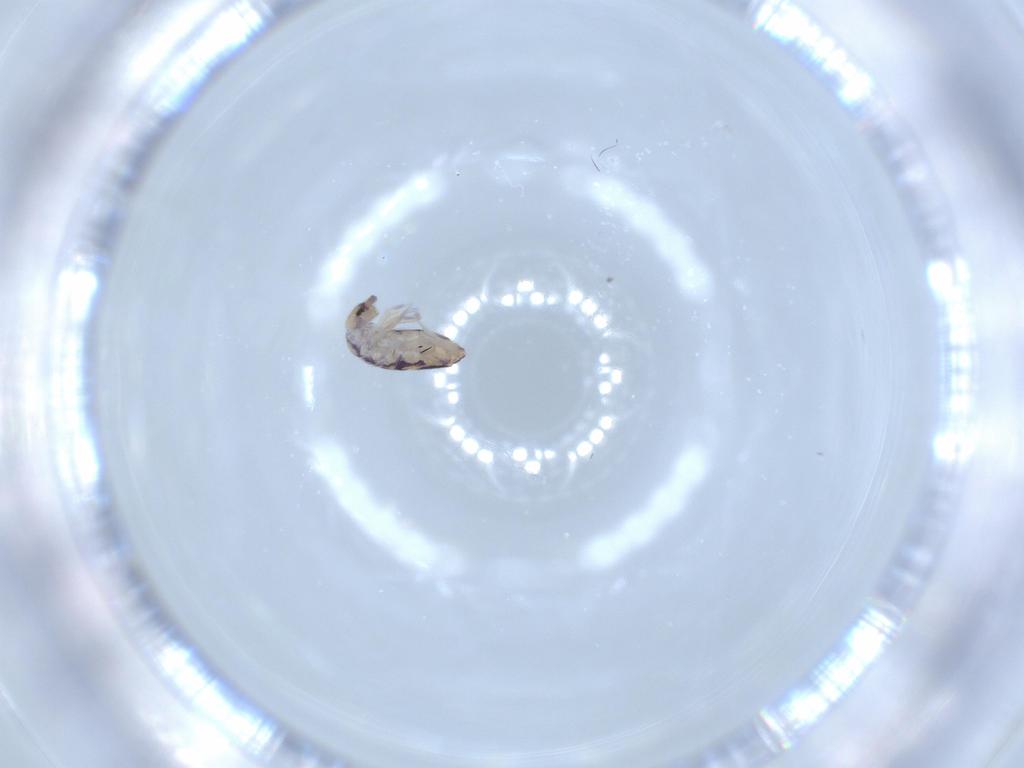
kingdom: Animalia
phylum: Arthropoda
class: Collembola
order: Entomobryomorpha
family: Entomobryidae
